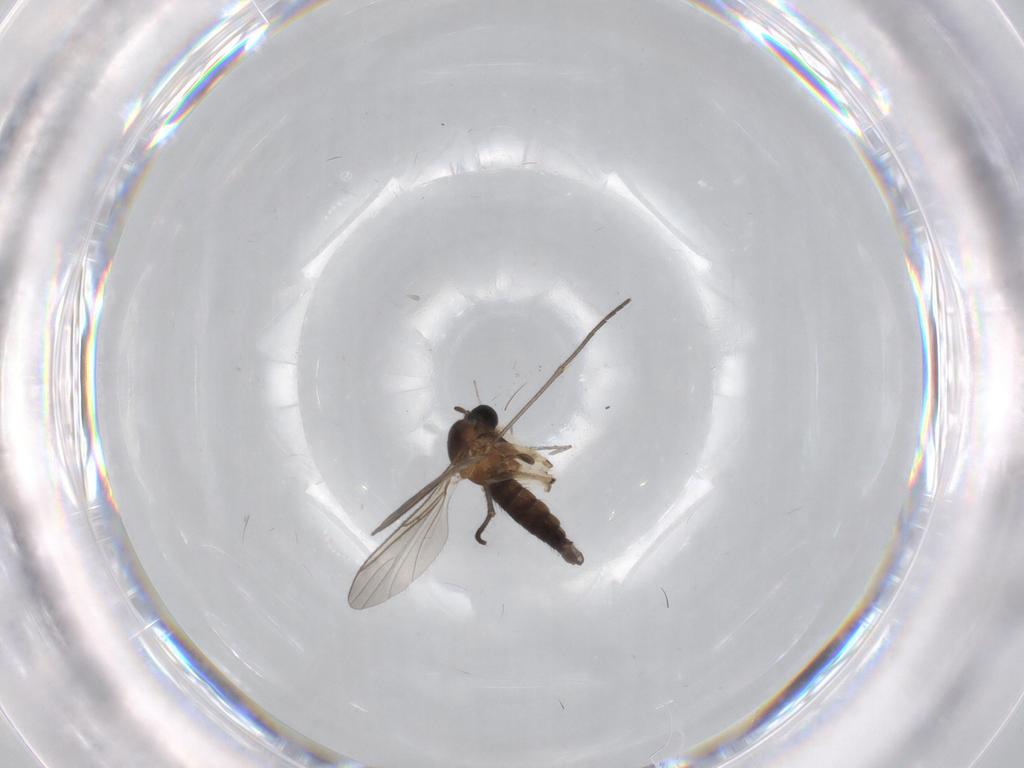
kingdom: Animalia
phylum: Arthropoda
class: Insecta
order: Diptera
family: Sciaridae
